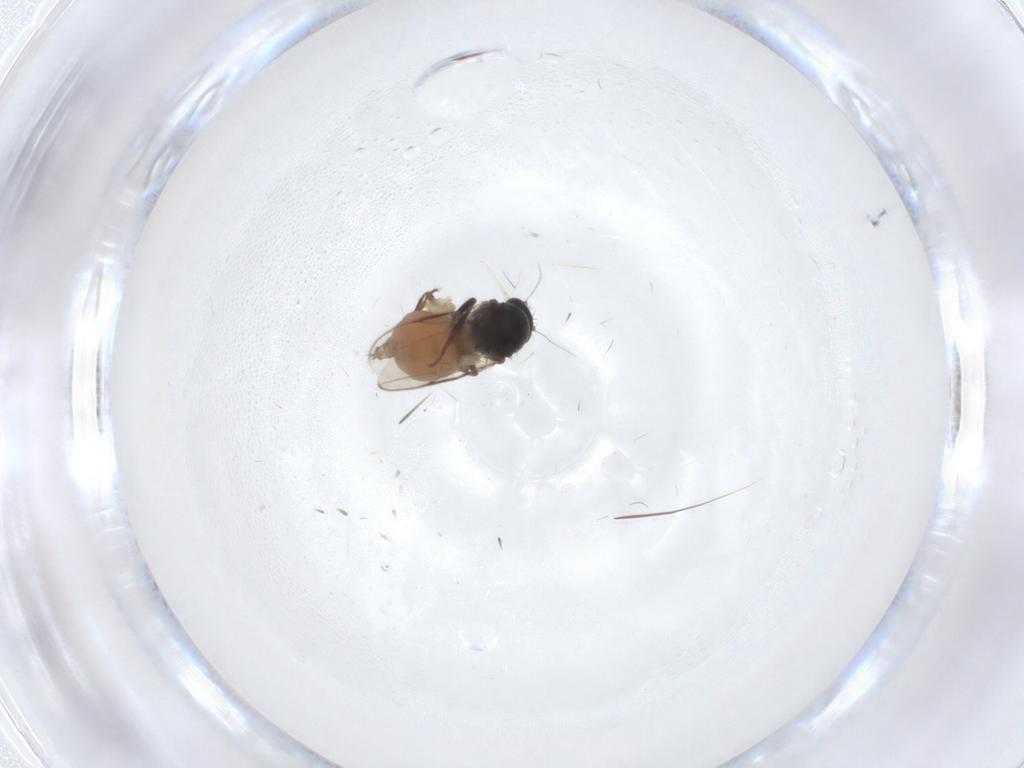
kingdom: Animalia
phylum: Arthropoda
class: Insecta
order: Diptera
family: Sphaeroceridae
